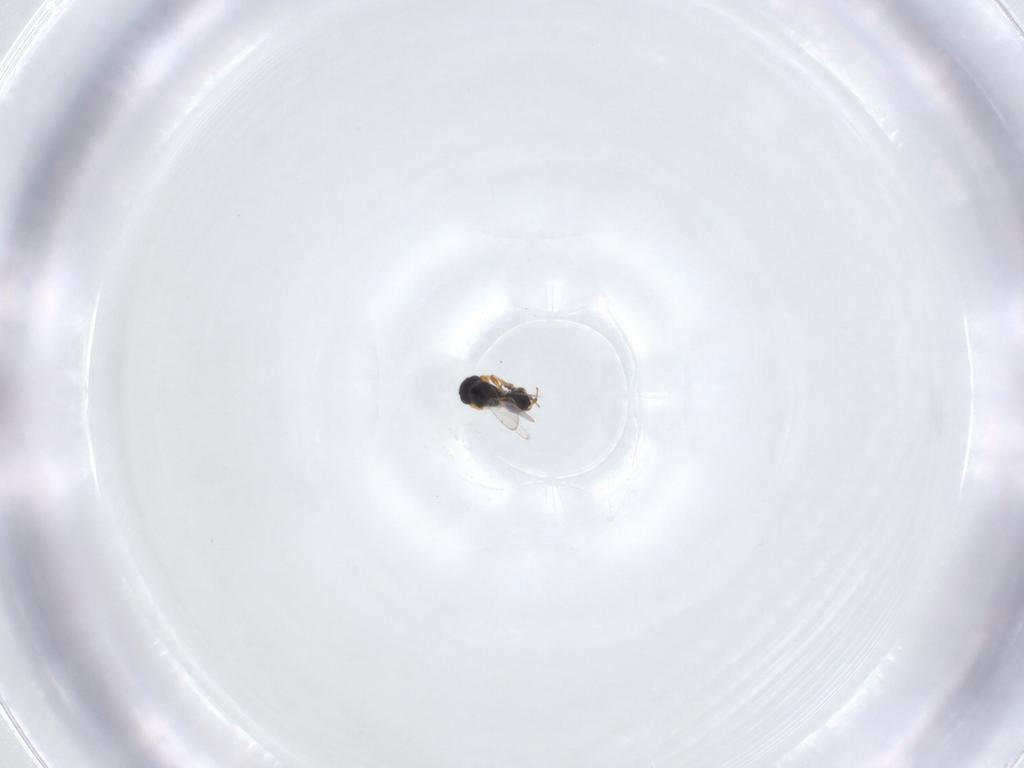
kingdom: Animalia
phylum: Arthropoda
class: Insecta
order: Hymenoptera
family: Platygastridae
